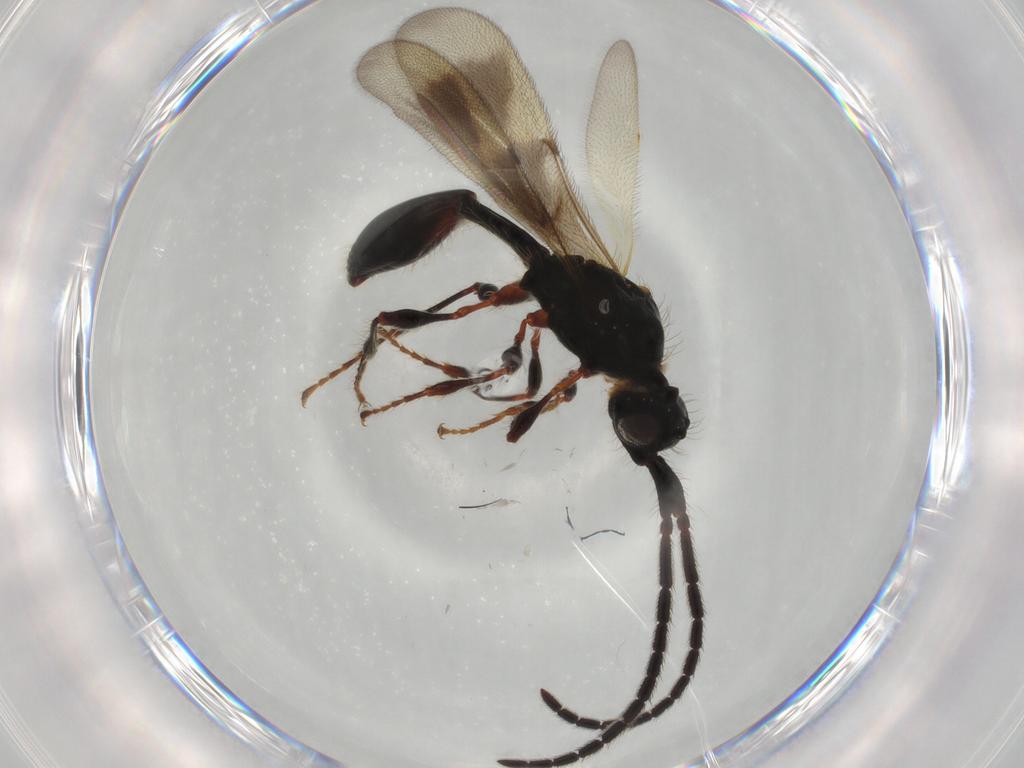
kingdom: Animalia
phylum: Arthropoda
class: Insecta
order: Hymenoptera
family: Diapriidae
